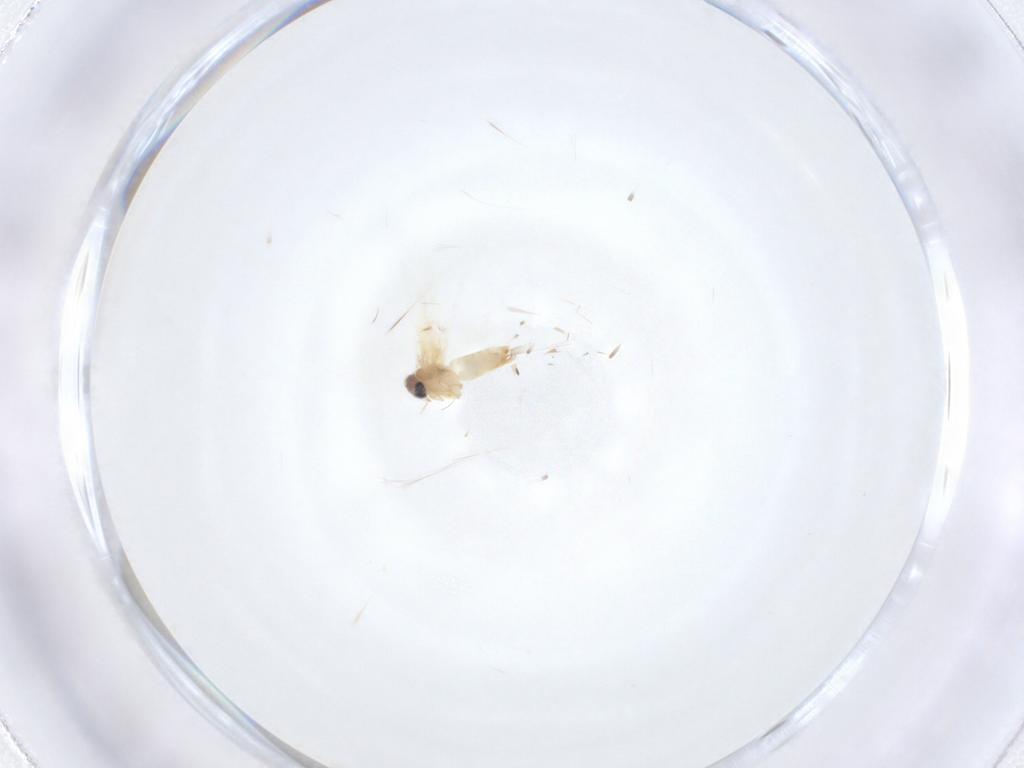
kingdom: Animalia
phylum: Arthropoda
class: Insecta
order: Lepidoptera
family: Crambidae
